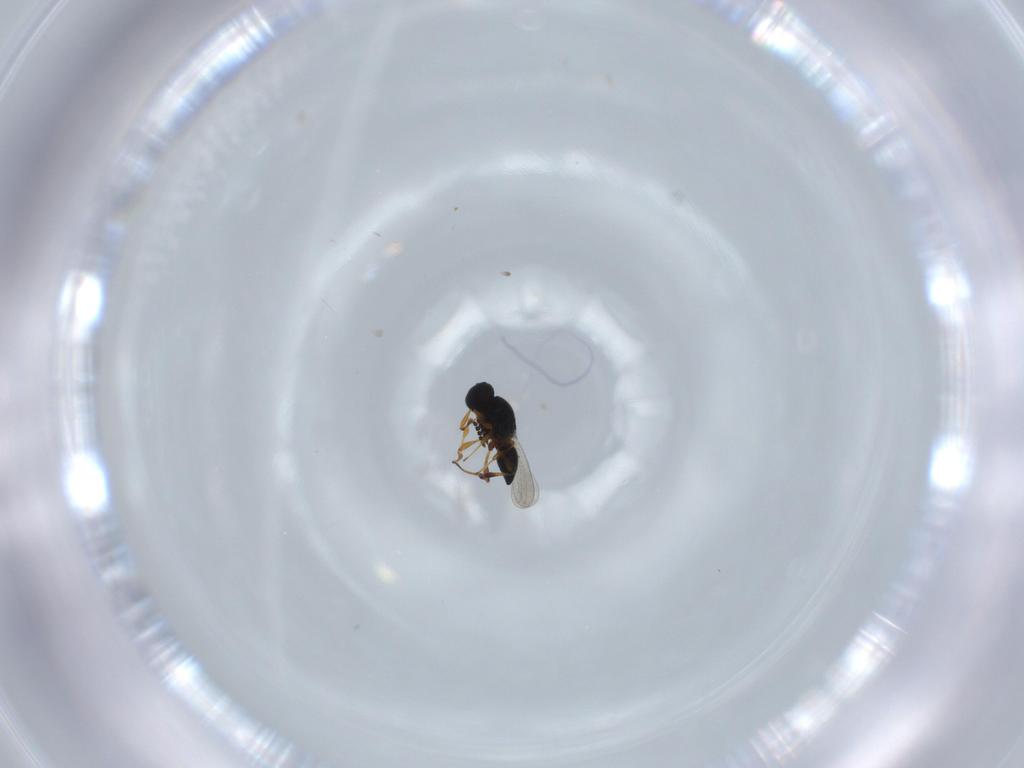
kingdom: Animalia
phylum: Arthropoda
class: Insecta
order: Hymenoptera
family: Platygastridae
